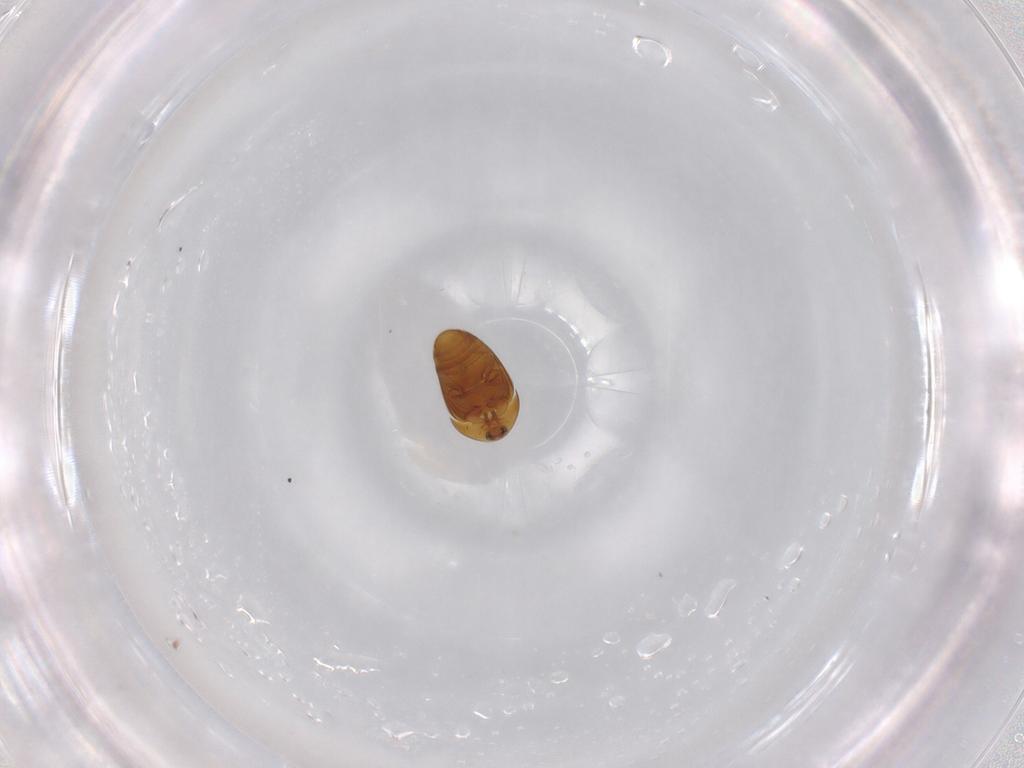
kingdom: Animalia
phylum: Arthropoda
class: Insecta
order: Coleoptera
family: Corylophidae
